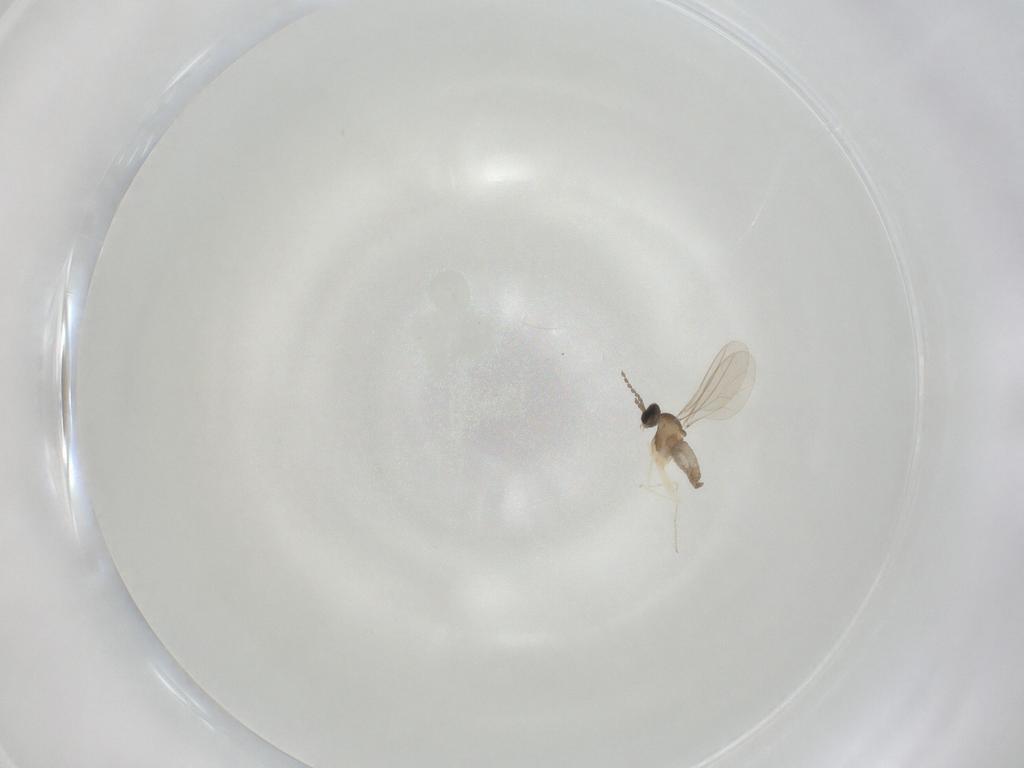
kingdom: Animalia
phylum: Arthropoda
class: Insecta
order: Diptera
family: Cecidomyiidae
